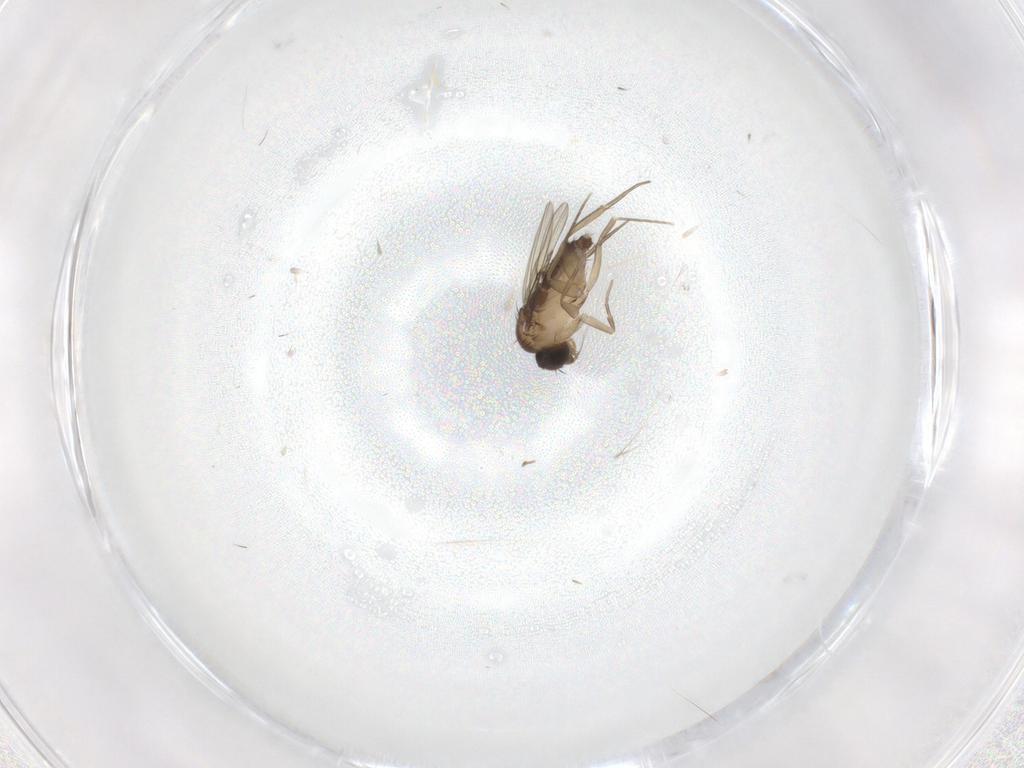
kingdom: Animalia
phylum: Arthropoda
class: Insecta
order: Diptera
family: Phoridae
